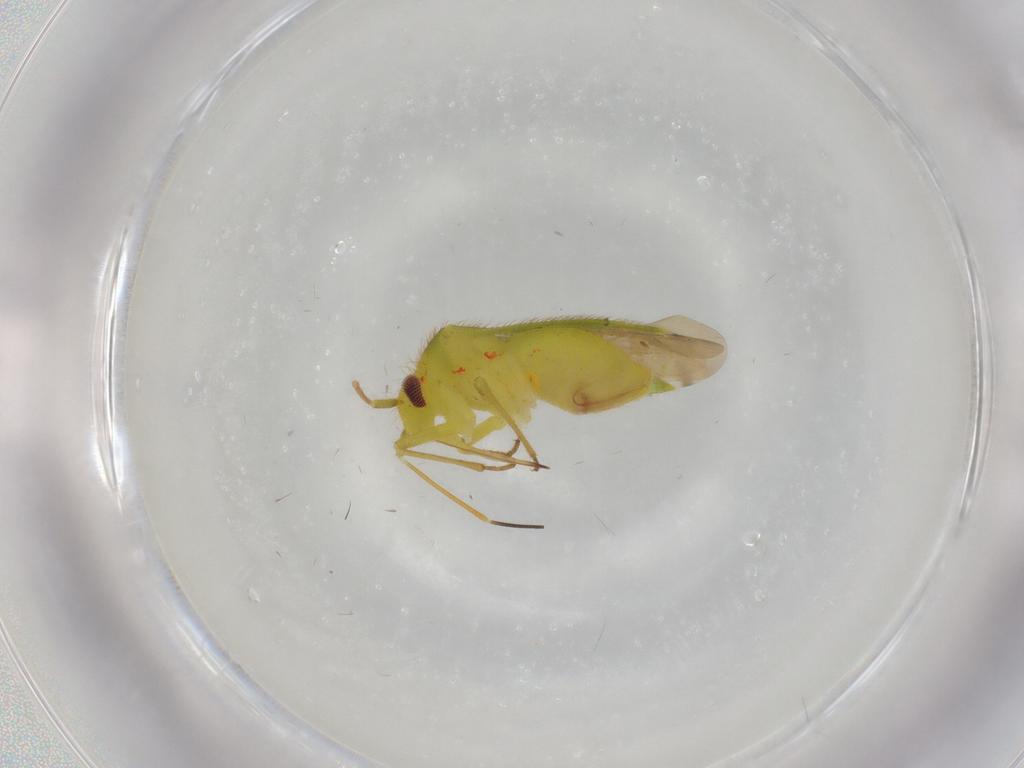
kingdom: Animalia
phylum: Arthropoda
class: Insecta
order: Hemiptera
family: Miridae
